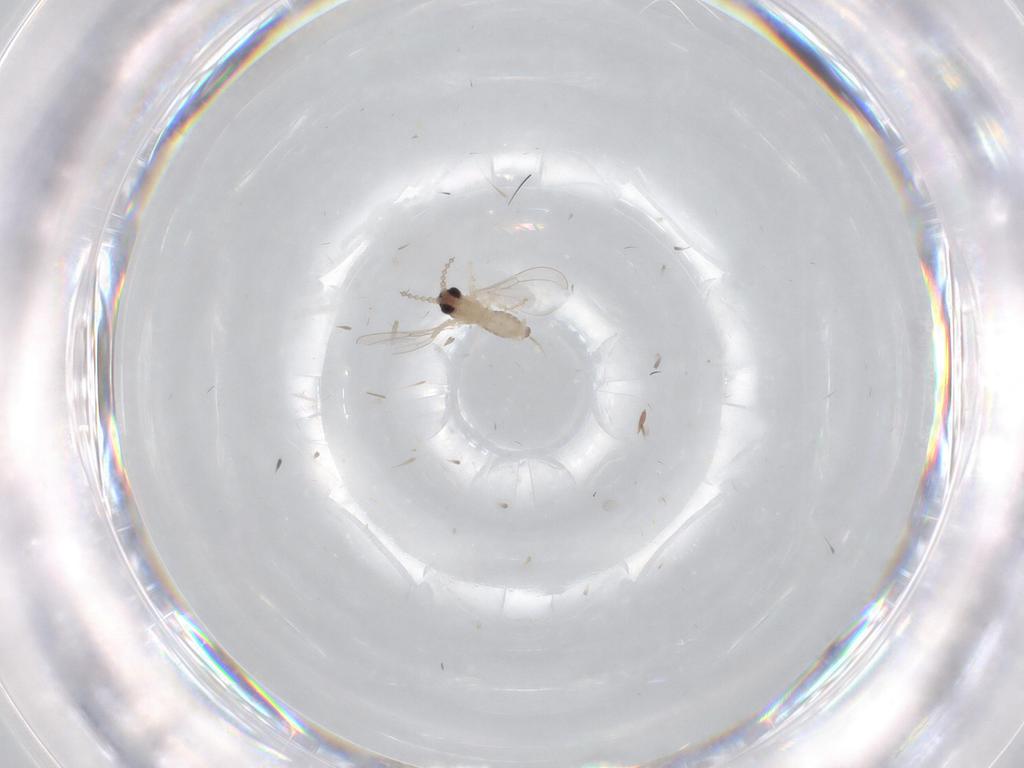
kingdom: Animalia
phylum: Arthropoda
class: Insecta
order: Diptera
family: Cecidomyiidae
